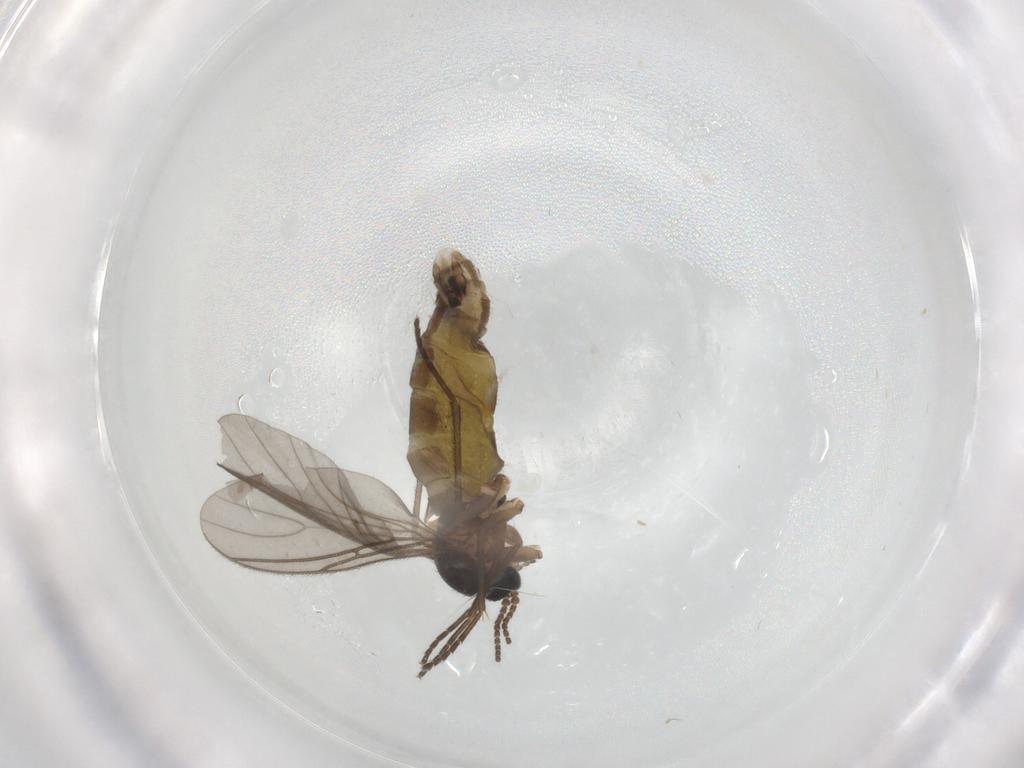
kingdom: Animalia
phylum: Arthropoda
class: Insecta
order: Diptera
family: Sciaridae
